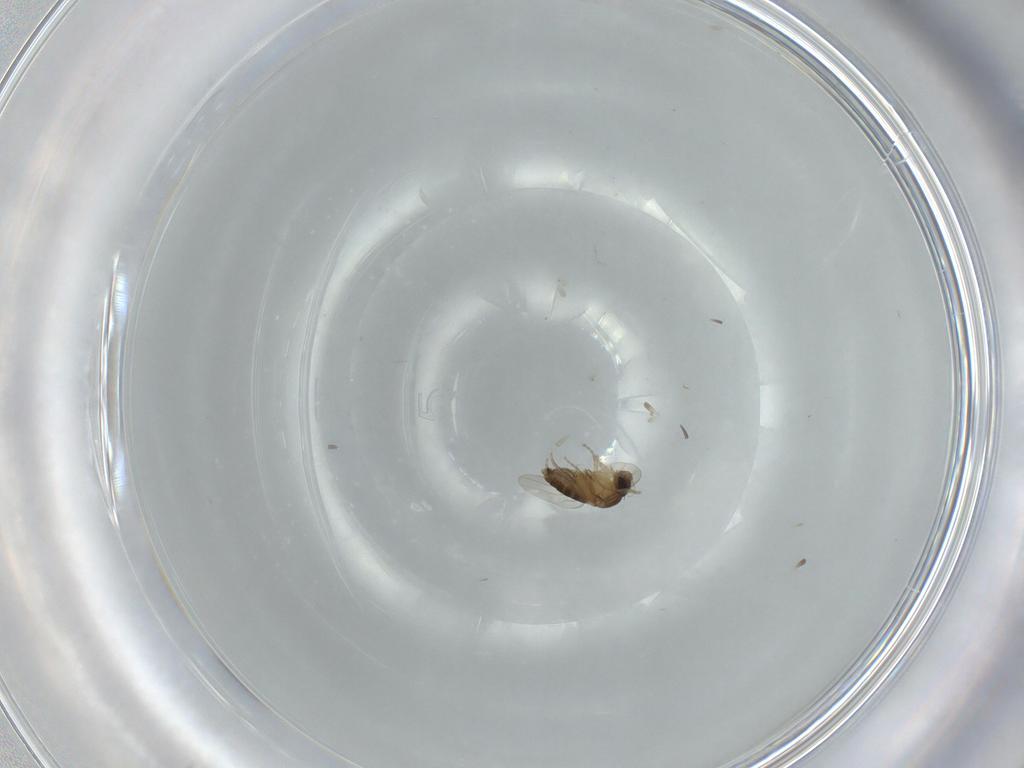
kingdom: Animalia
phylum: Arthropoda
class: Insecta
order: Diptera
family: Phoridae
